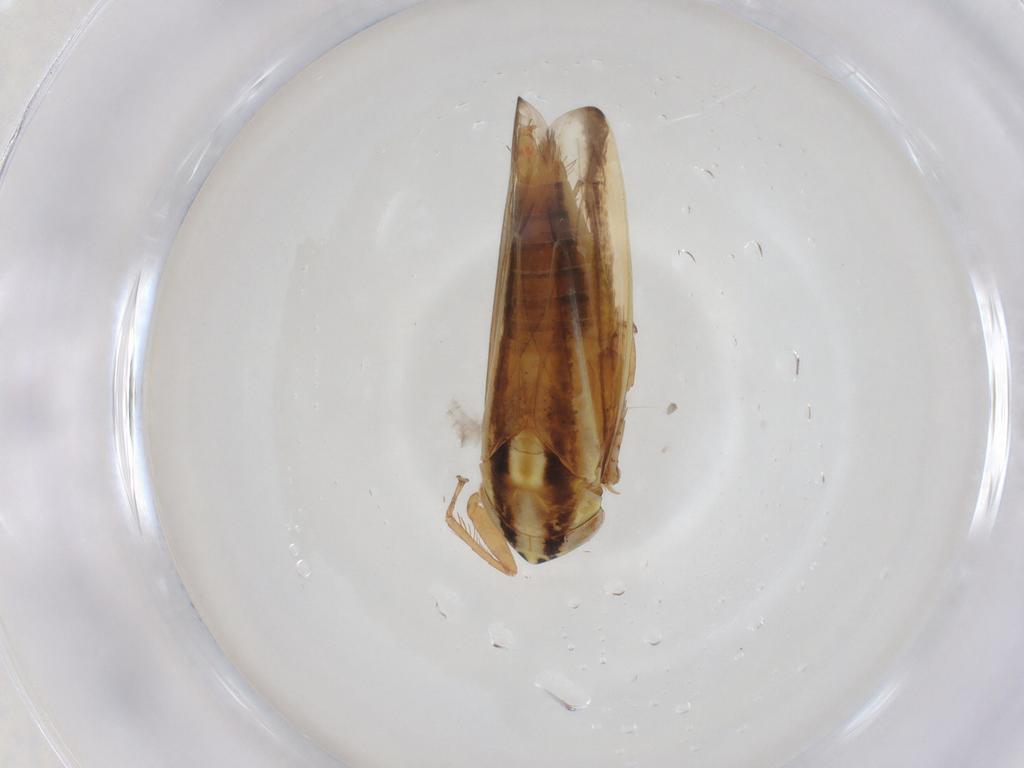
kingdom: Animalia
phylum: Arthropoda
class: Insecta
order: Hemiptera
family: Cicadellidae
